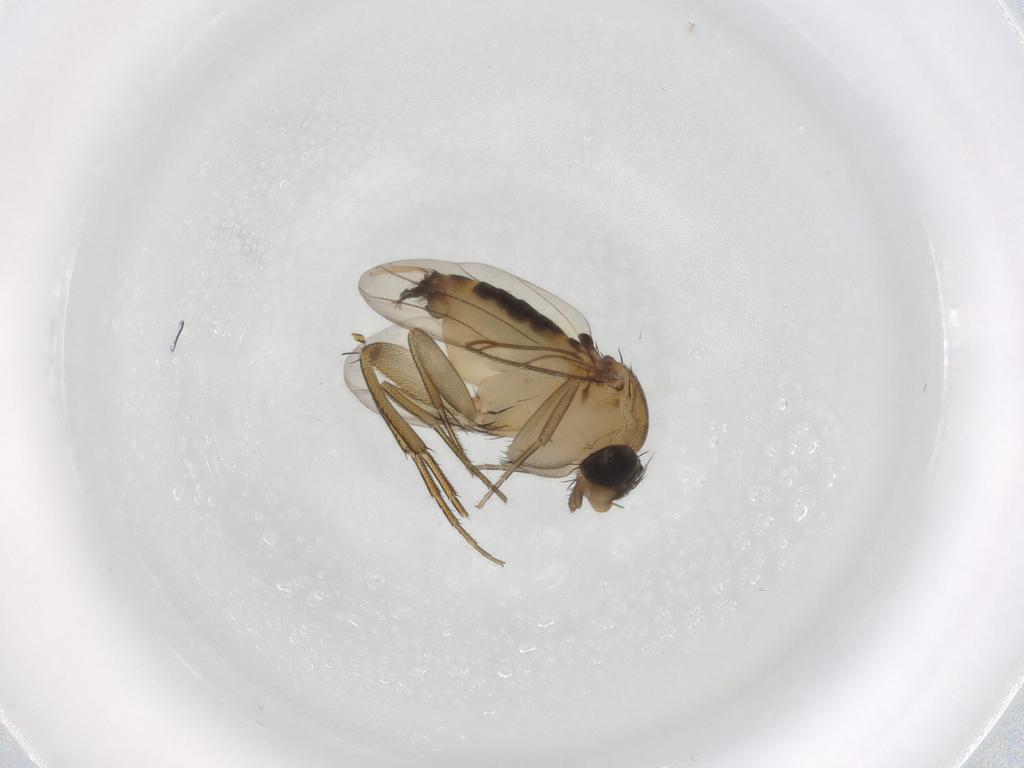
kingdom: Animalia
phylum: Arthropoda
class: Insecta
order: Diptera
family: Phoridae
